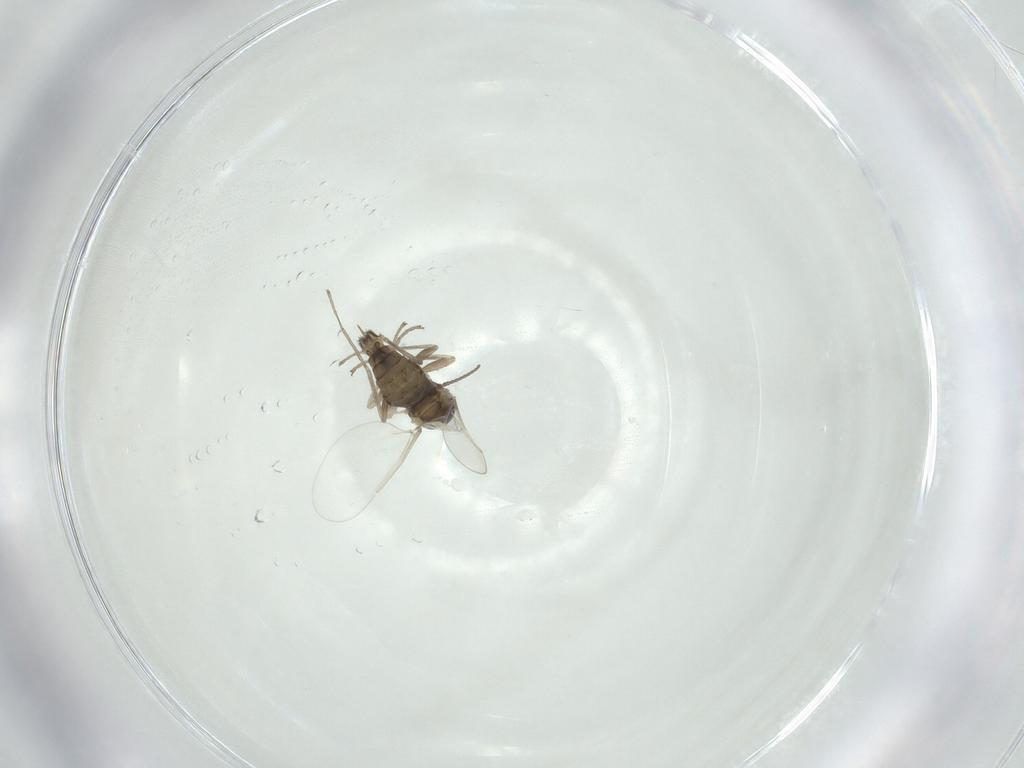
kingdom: Animalia
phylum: Arthropoda
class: Insecta
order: Diptera
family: Cecidomyiidae
